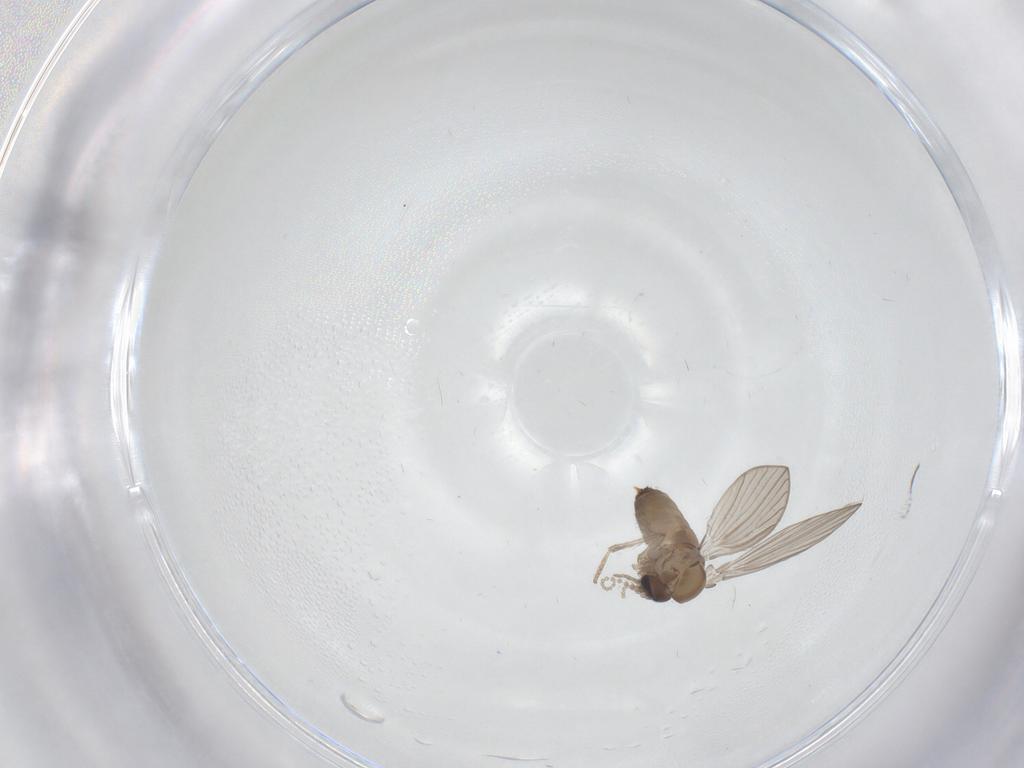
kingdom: Animalia
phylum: Arthropoda
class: Insecta
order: Diptera
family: Psychodidae
